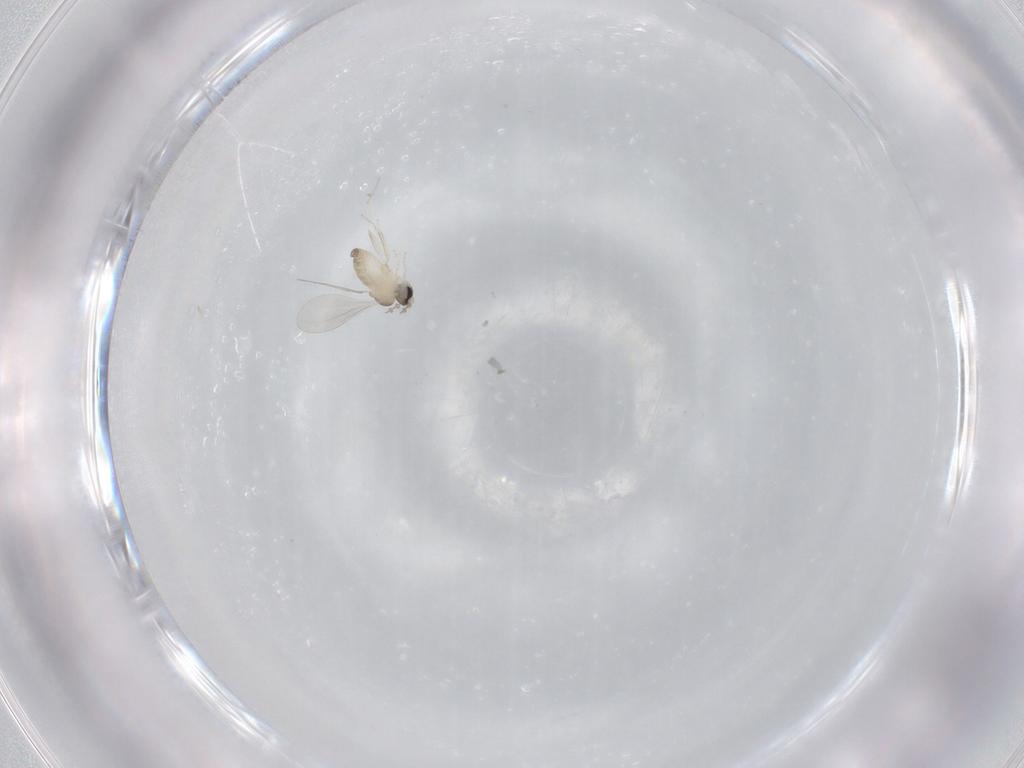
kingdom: Animalia
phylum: Arthropoda
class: Insecta
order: Diptera
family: Cecidomyiidae
